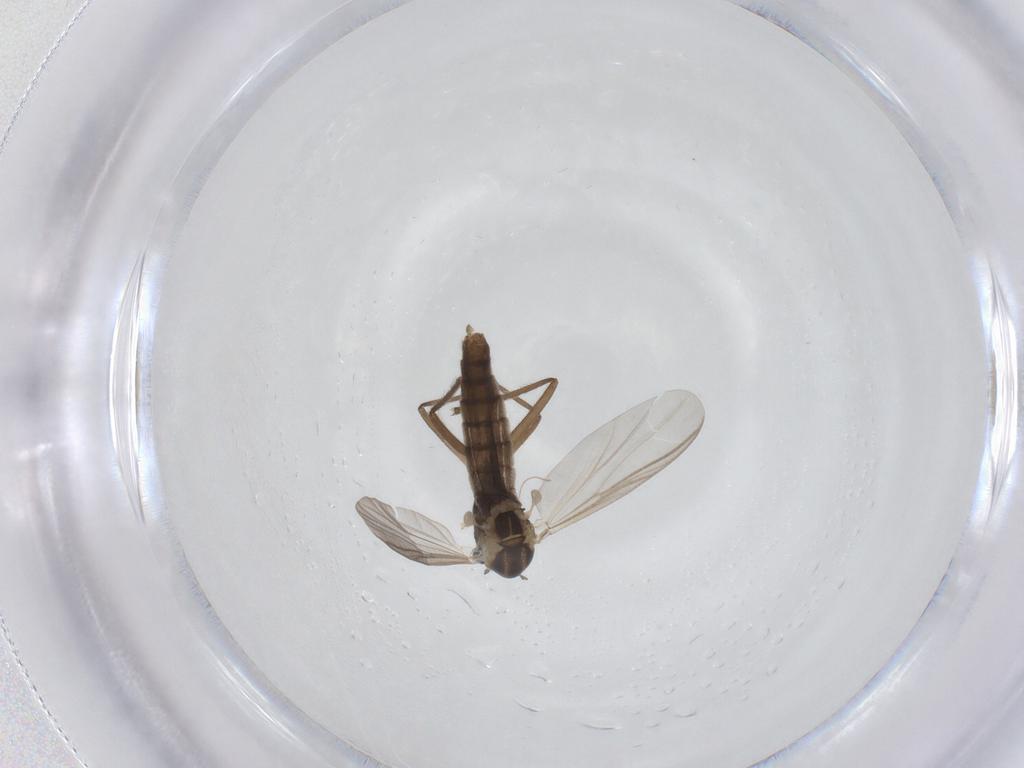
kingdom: Animalia
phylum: Arthropoda
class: Insecta
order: Diptera
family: Chironomidae
